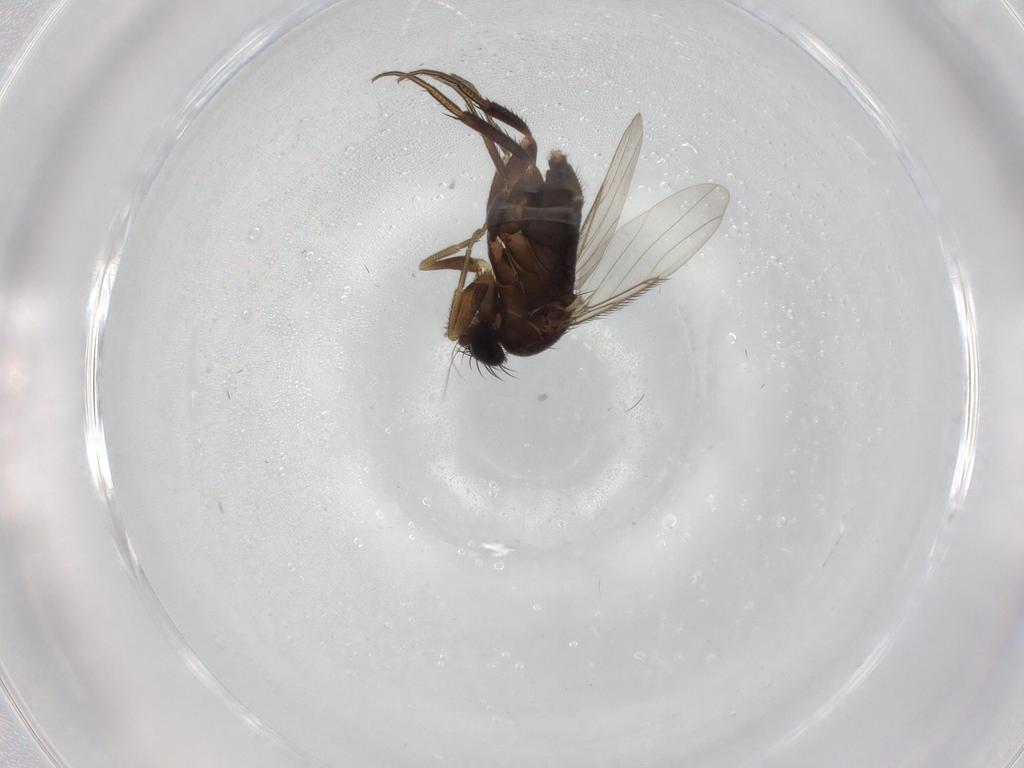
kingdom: Animalia
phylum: Arthropoda
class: Insecta
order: Diptera
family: Phoridae
